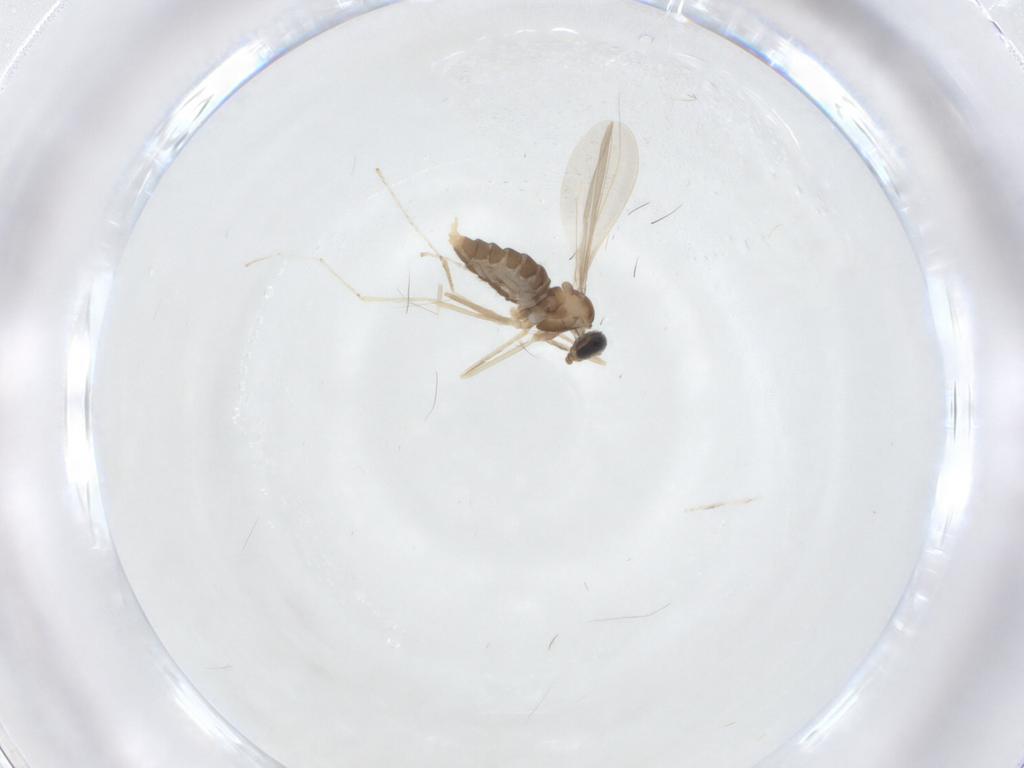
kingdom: Animalia
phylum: Arthropoda
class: Insecta
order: Diptera
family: Cecidomyiidae
